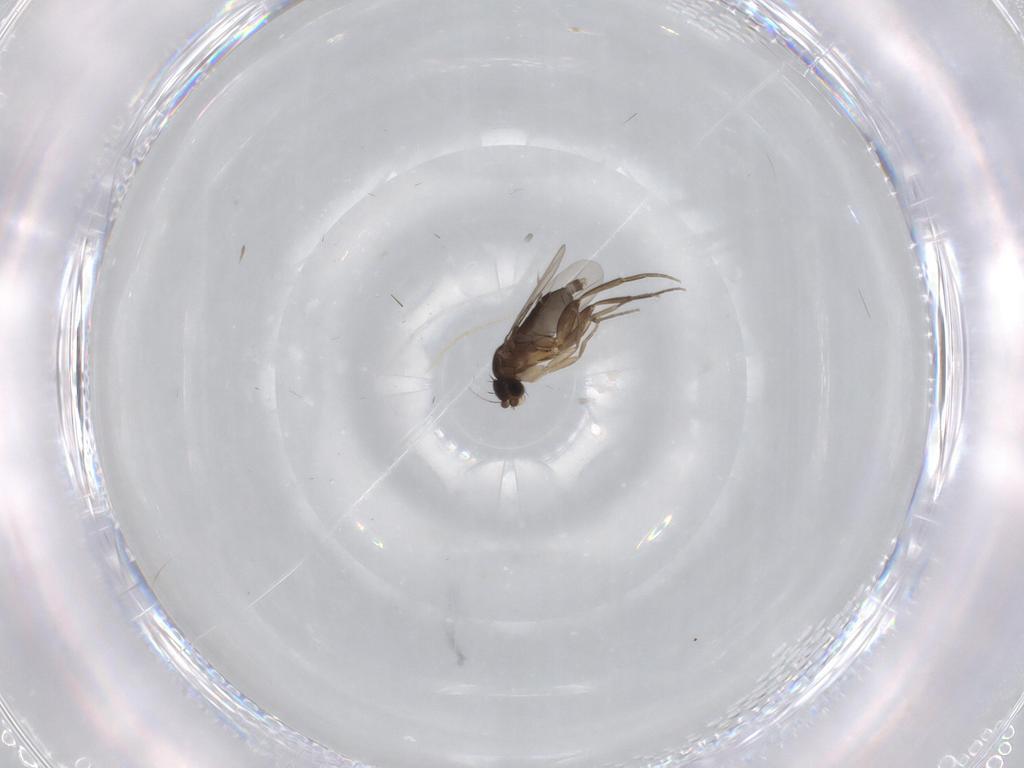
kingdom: Animalia
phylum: Arthropoda
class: Insecta
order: Diptera
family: Phoridae
